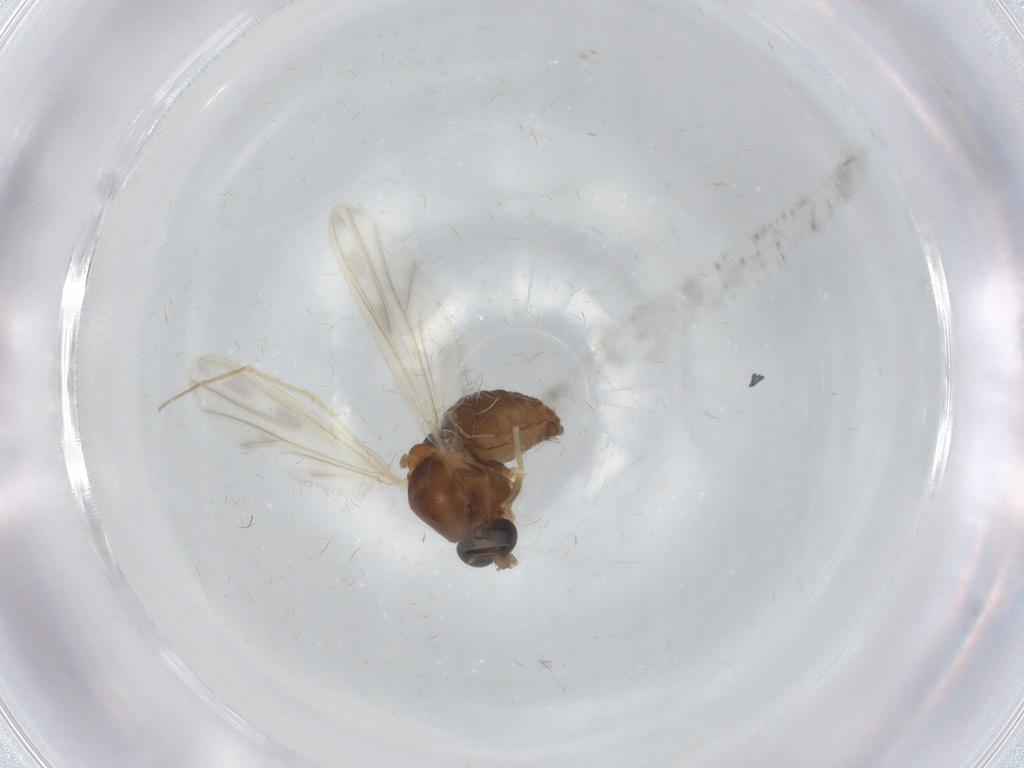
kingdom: Animalia
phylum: Arthropoda
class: Insecta
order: Diptera
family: Chironomidae
